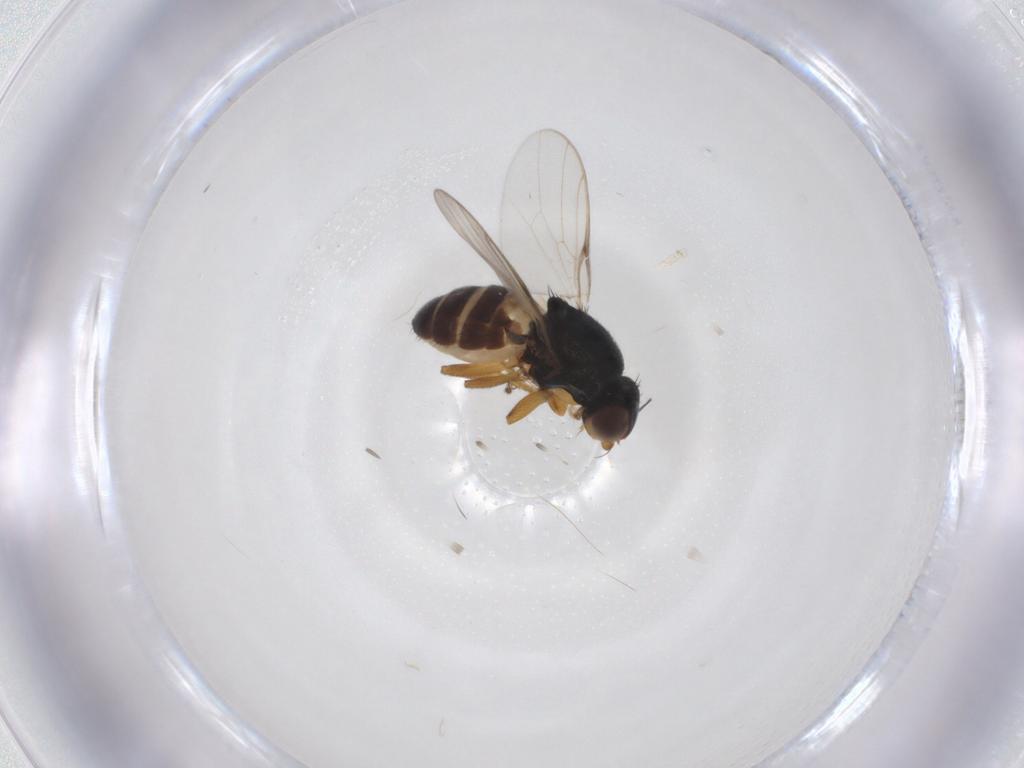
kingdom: Animalia
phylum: Arthropoda
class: Insecta
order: Diptera
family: Chloropidae
